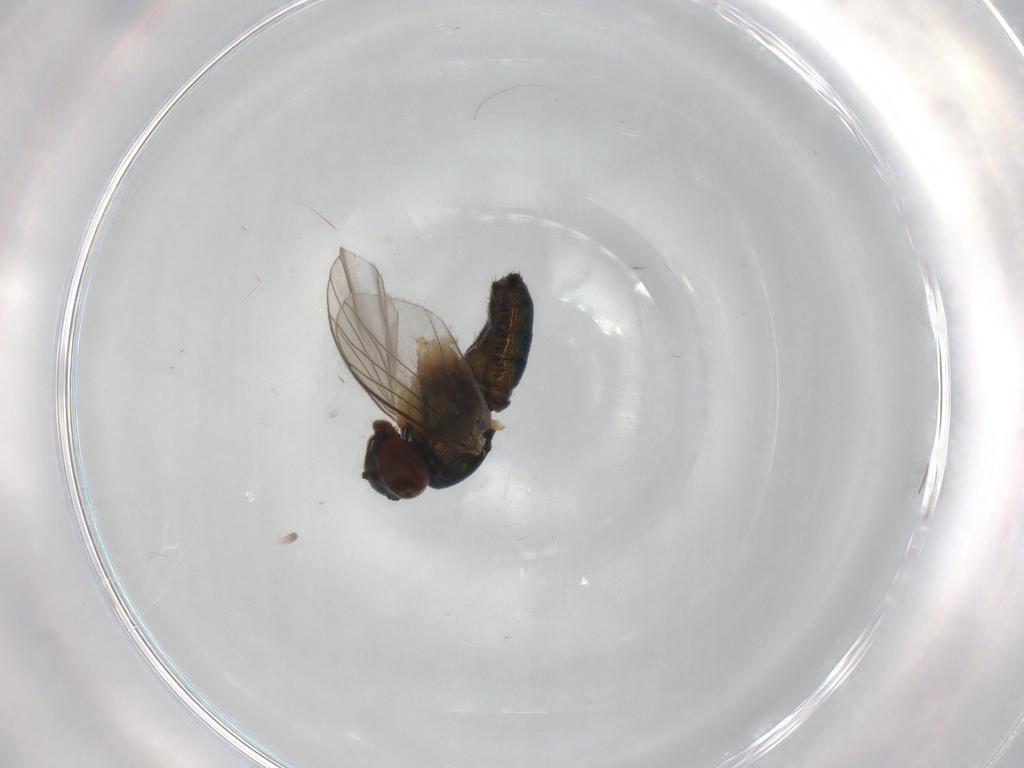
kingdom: Animalia
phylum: Arthropoda
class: Insecta
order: Diptera
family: Dolichopodidae
